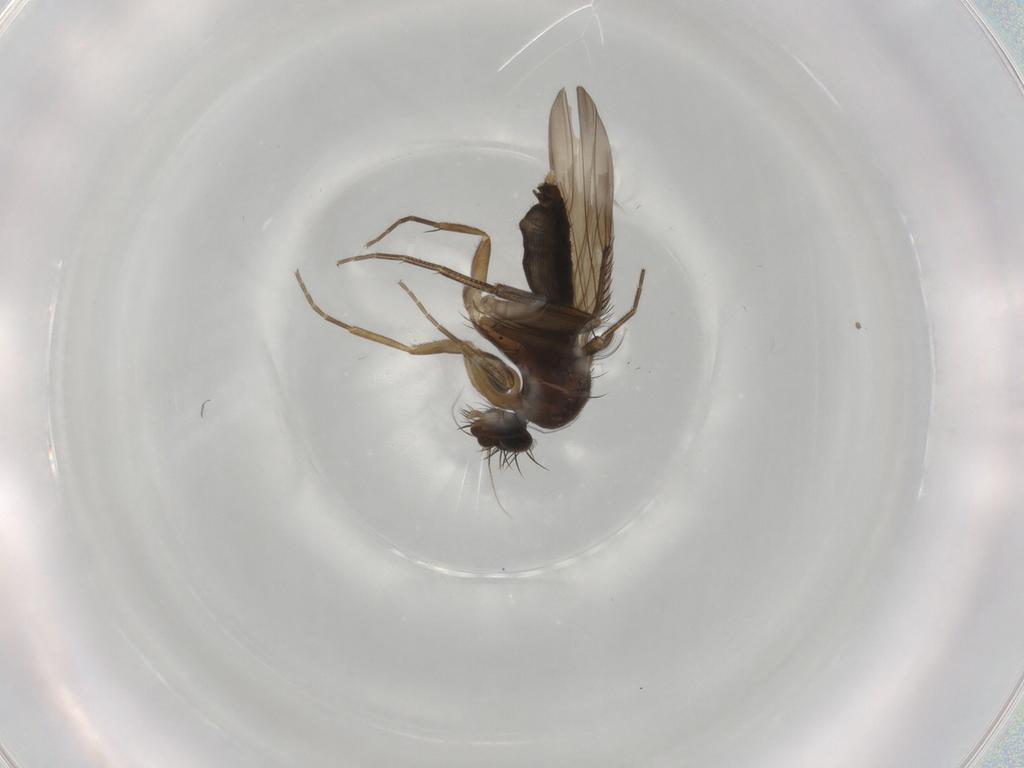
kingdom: Animalia
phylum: Arthropoda
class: Insecta
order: Diptera
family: Phoridae
